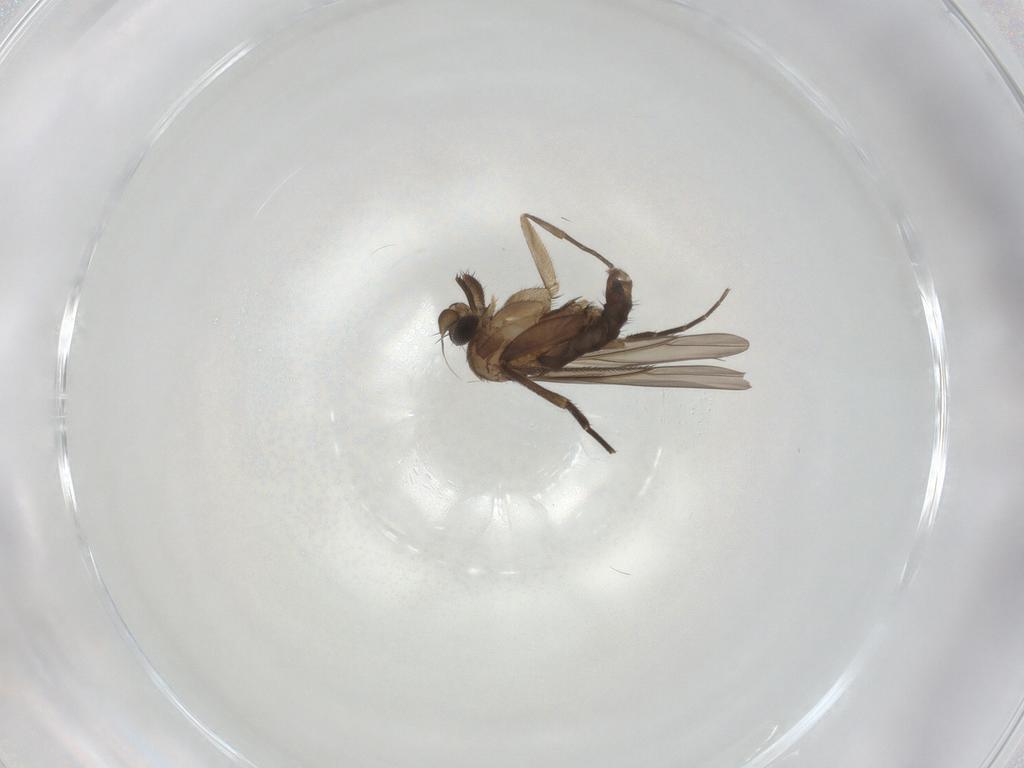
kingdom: Animalia
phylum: Arthropoda
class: Insecta
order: Diptera
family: Phoridae
